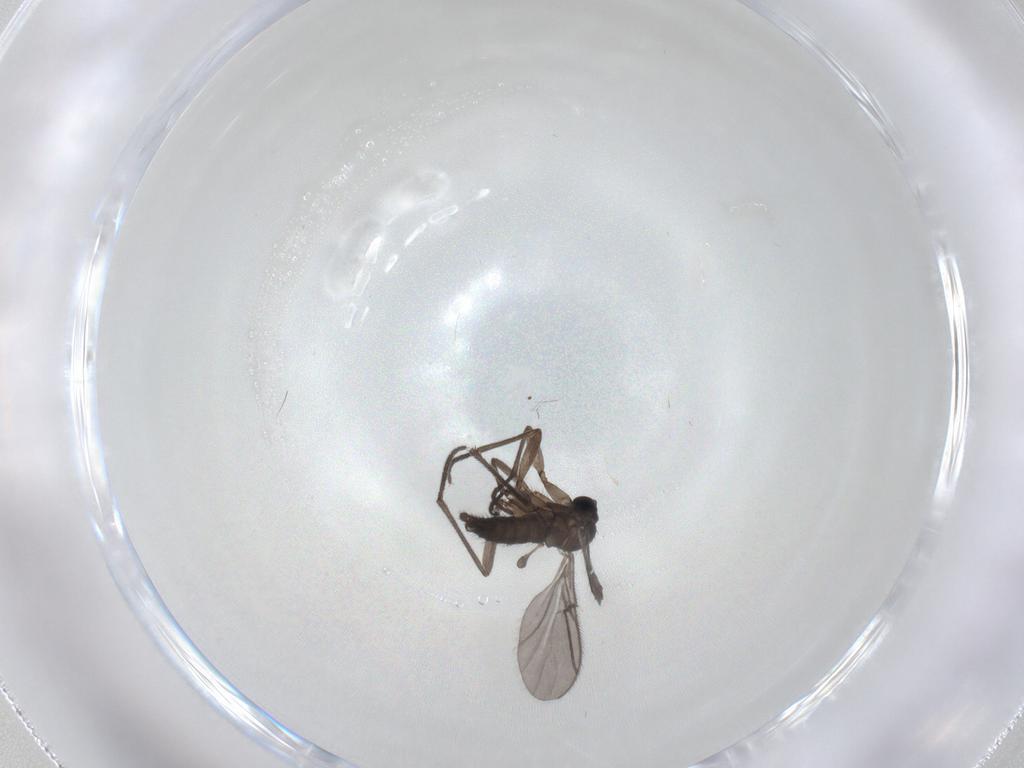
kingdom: Animalia
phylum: Arthropoda
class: Insecta
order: Diptera
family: Sciaridae
